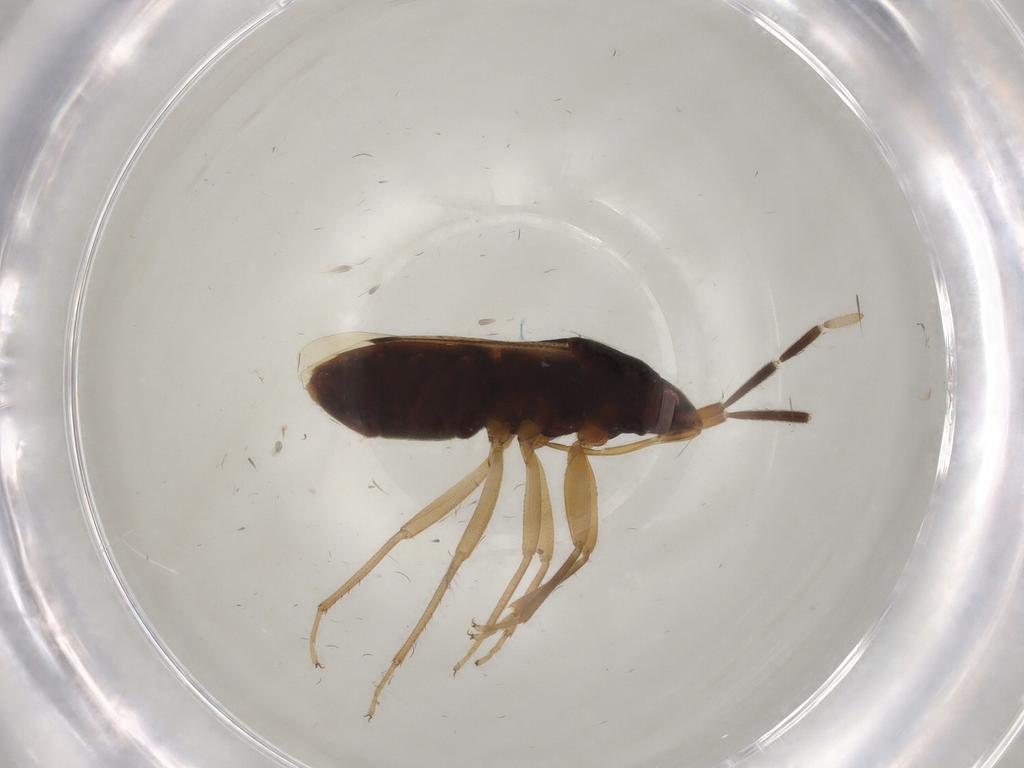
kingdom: Animalia
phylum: Arthropoda
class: Insecta
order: Hemiptera
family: Rhyparochromidae
